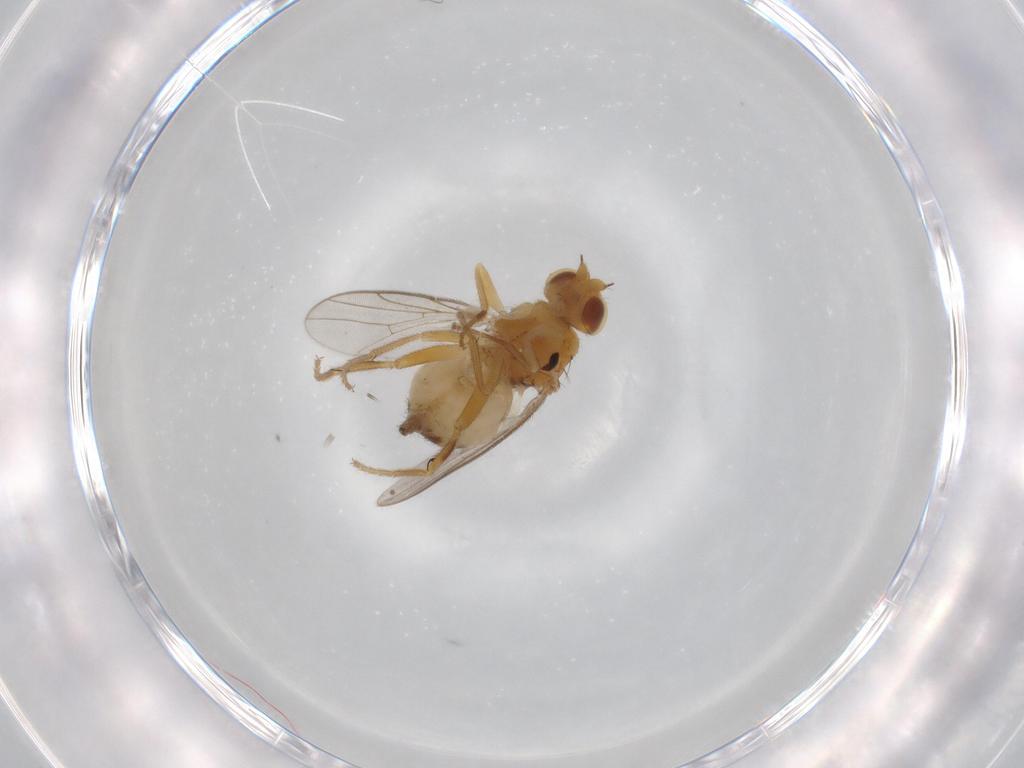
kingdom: Animalia
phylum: Arthropoda
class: Insecta
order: Diptera
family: Chloropidae
